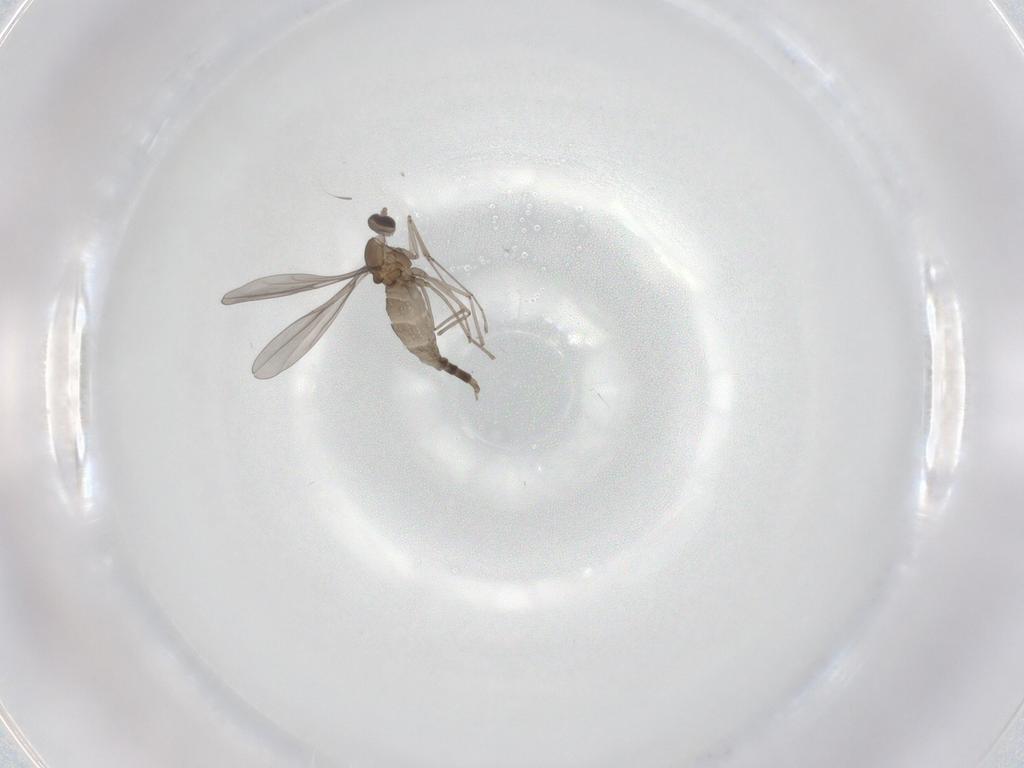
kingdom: Animalia
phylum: Arthropoda
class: Insecta
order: Diptera
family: Cecidomyiidae
